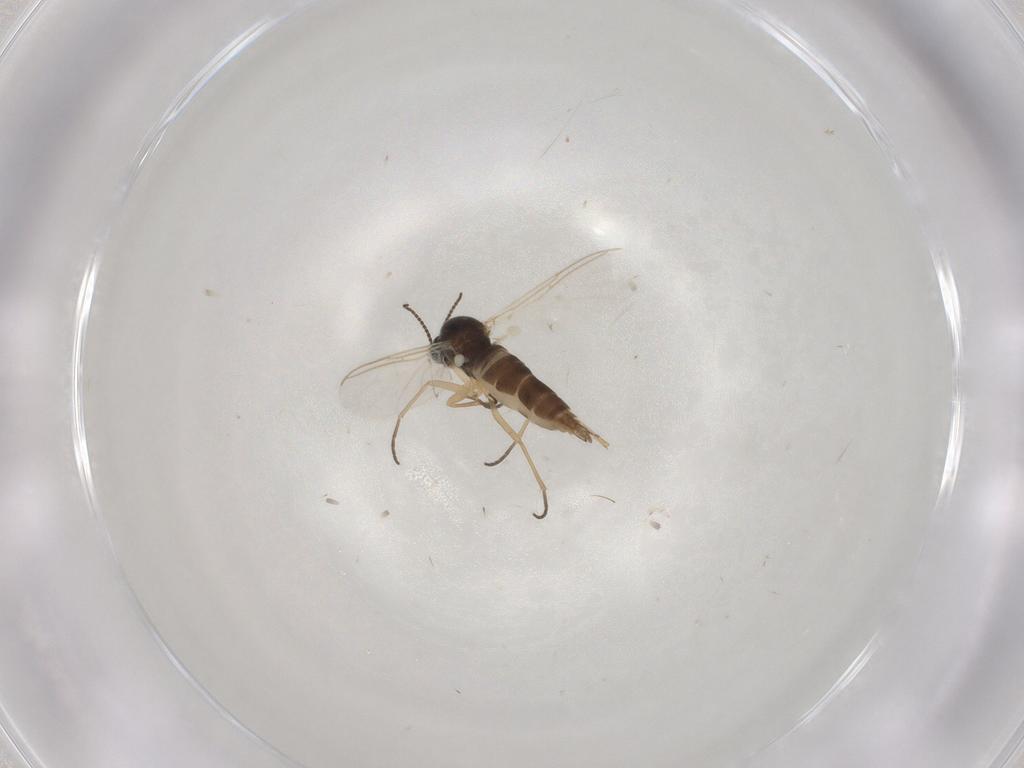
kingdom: Animalia
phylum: Arthropoda
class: Insecta
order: Diptera
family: Sciaridae
